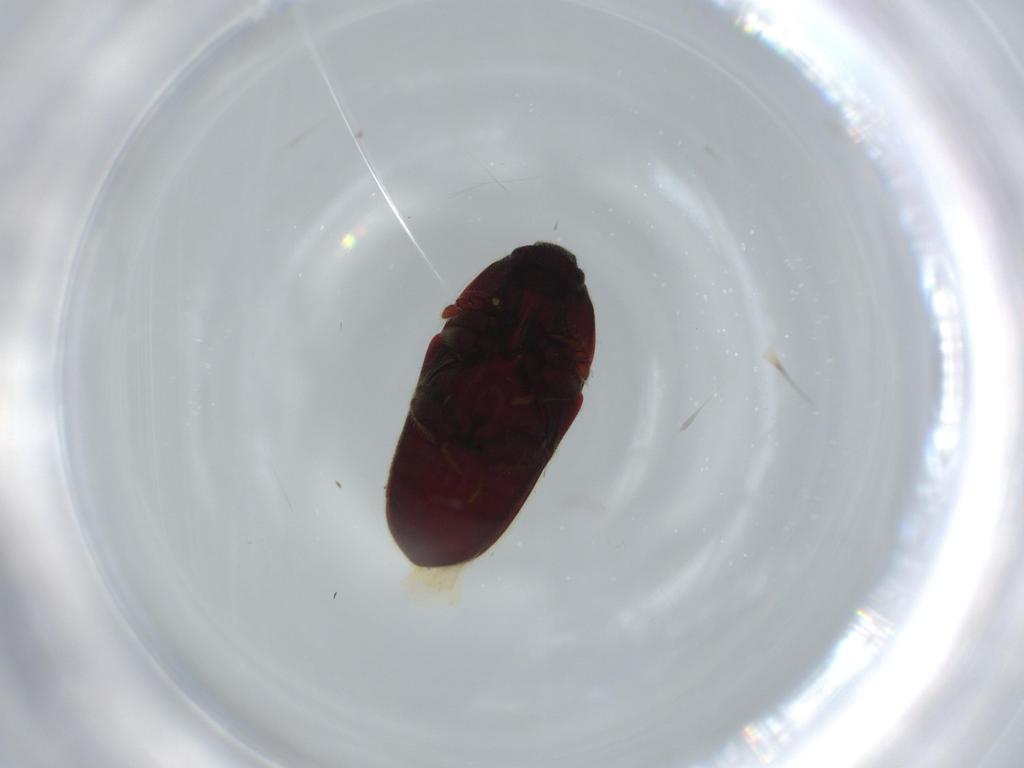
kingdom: Animalia
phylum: Arthropoda
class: Insecta
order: Coleoptera
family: Throscidae
